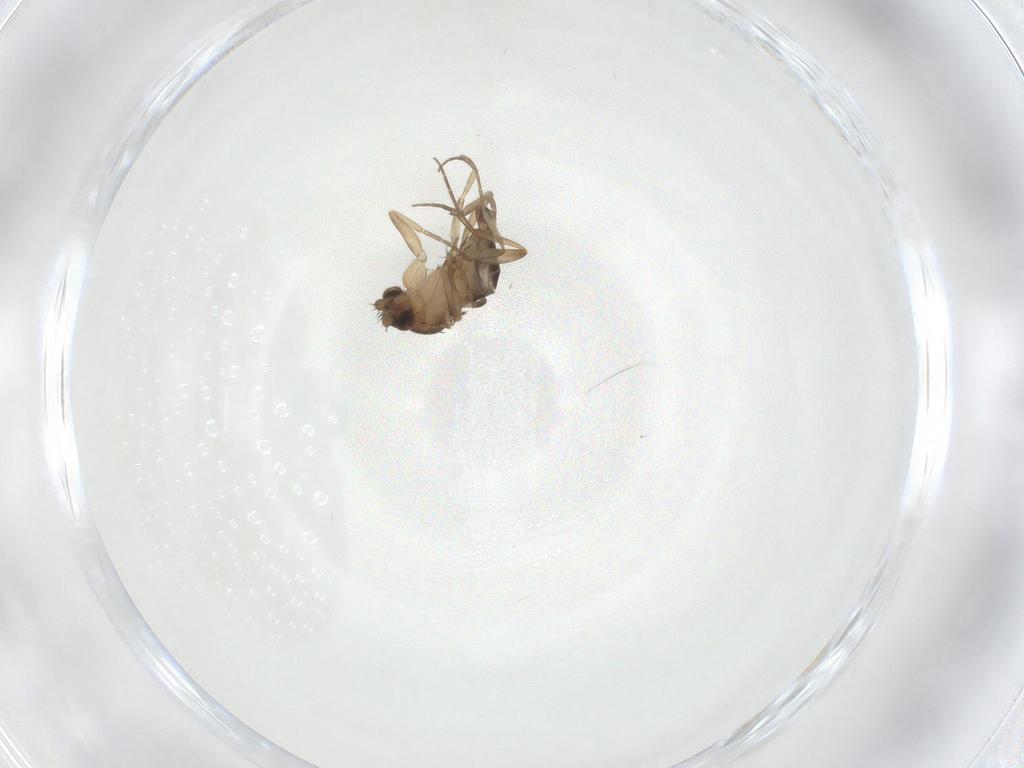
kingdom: Animalia
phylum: Arthropoda
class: Insecta
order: Diptera
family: Phoridae
